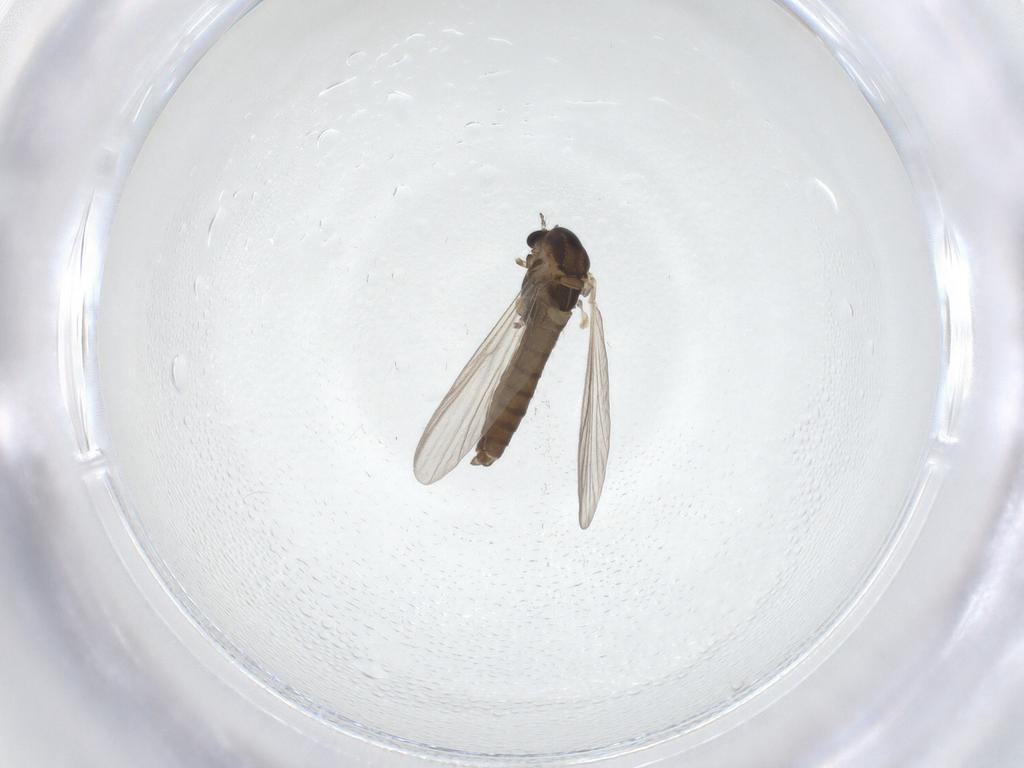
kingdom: Animalia
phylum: Arthropoda
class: Insecta
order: Diptera
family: Chironomidae
